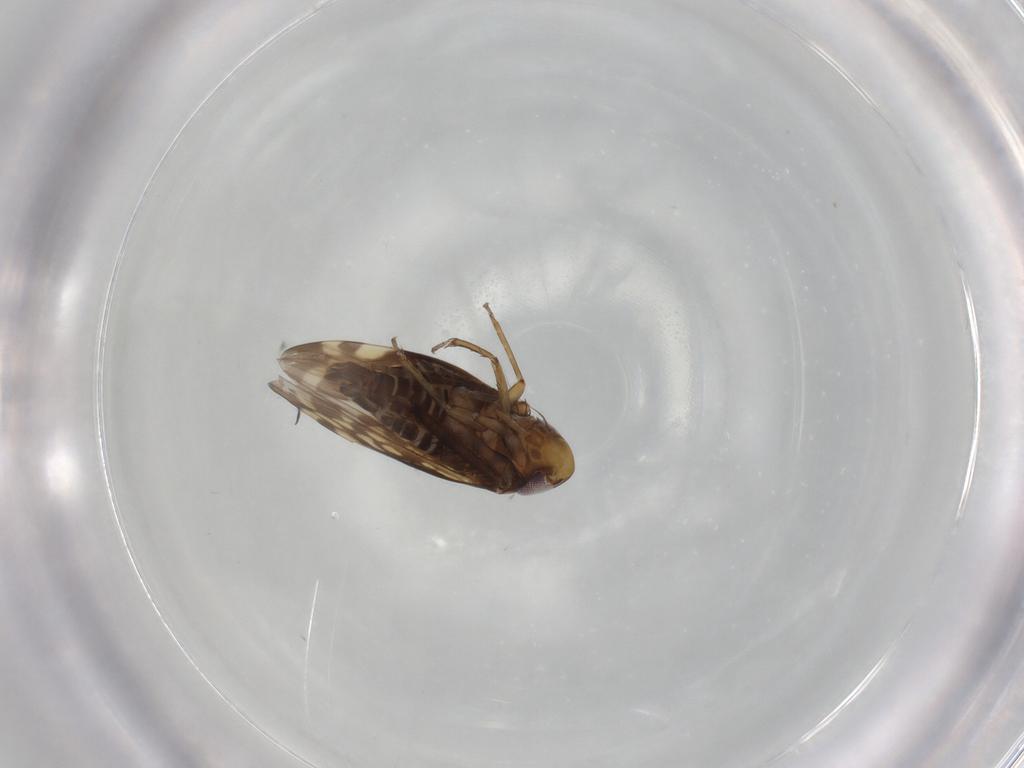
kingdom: Animalia
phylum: Arthropoda
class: Insecta
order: Hemiptera
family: Cicadellidae
